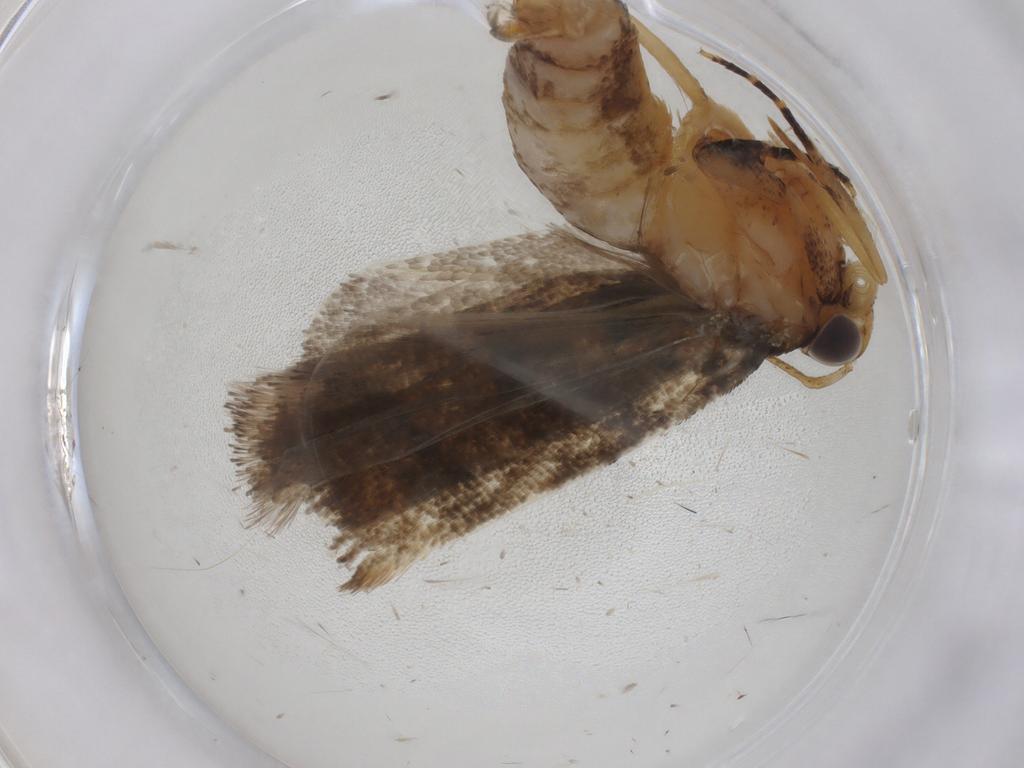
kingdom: Animalia
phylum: Arthropoda
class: Insecta
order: Lepidoptera
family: Gelechiidae
